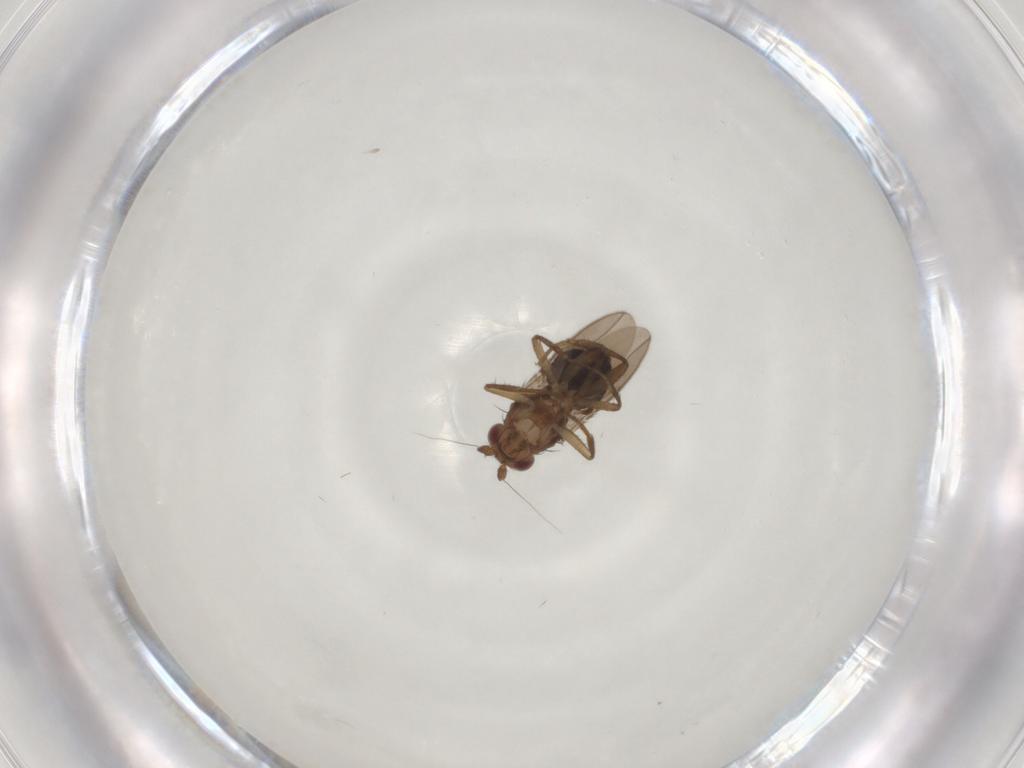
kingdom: Animalia
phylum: Arthropoda
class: Insecta
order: Diptera
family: Sphaeroceridae
